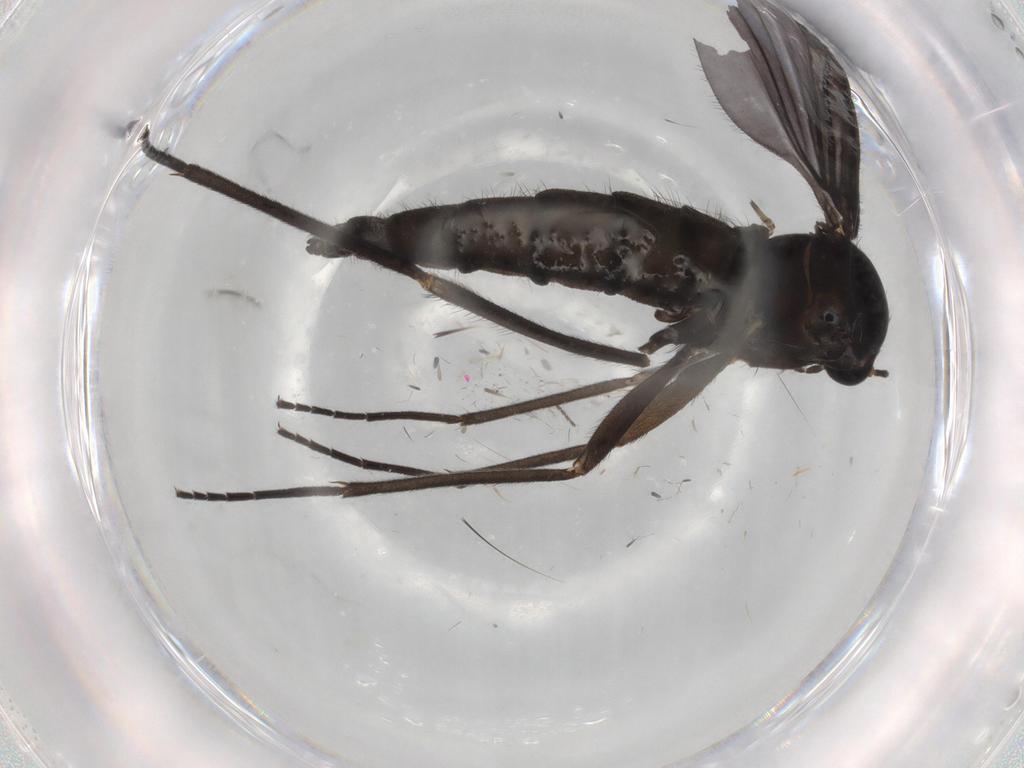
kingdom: Animalia
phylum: Arthropoda
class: Insecta
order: Diptera
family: Sciaridae
